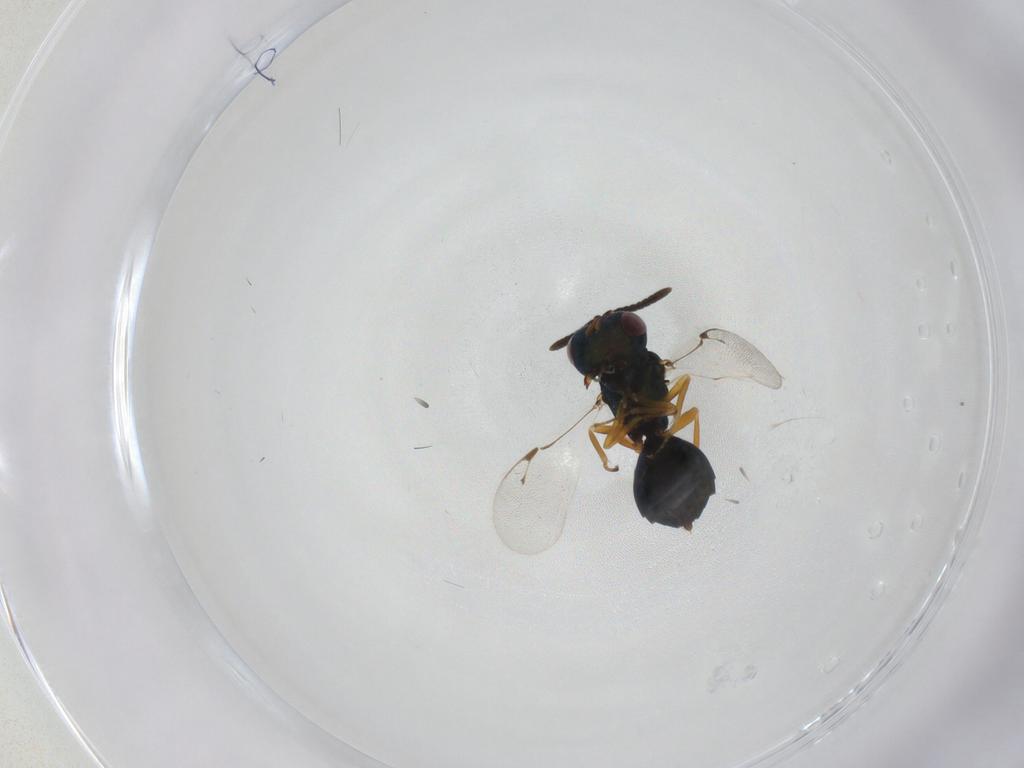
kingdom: Animalia
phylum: Arthropoda
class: Insecta
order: Hymenoptera
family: Pteromalidae
